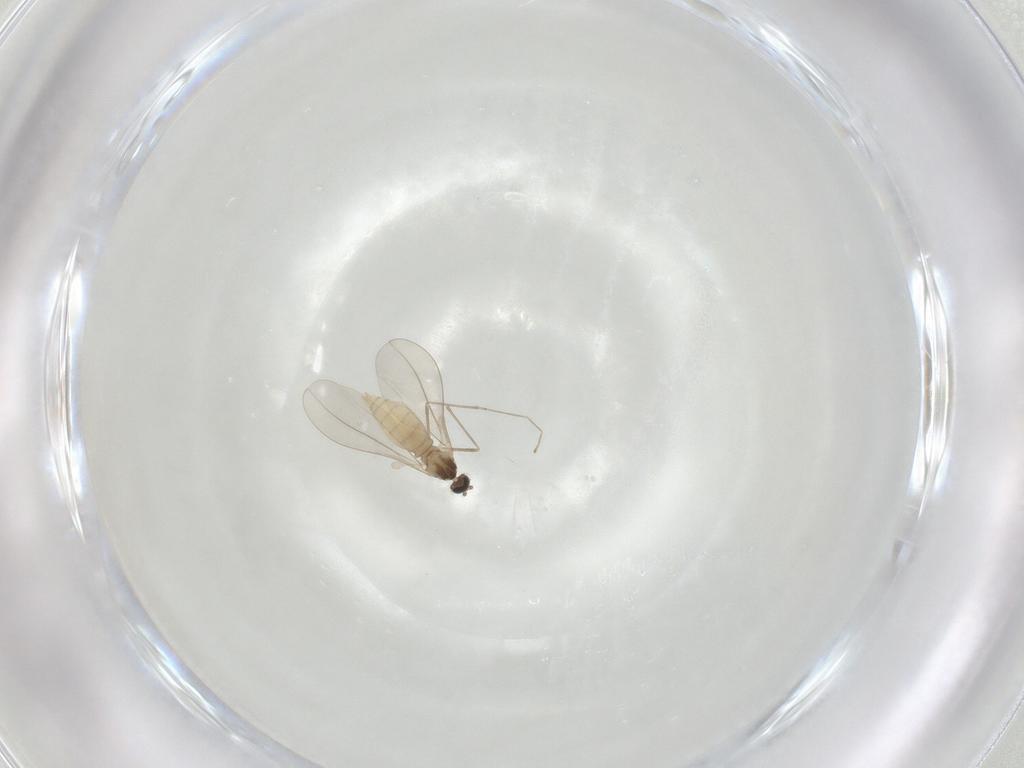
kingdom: Animalia
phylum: Arthropoda
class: Insecta
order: Diptera
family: Cecidomyiidae
